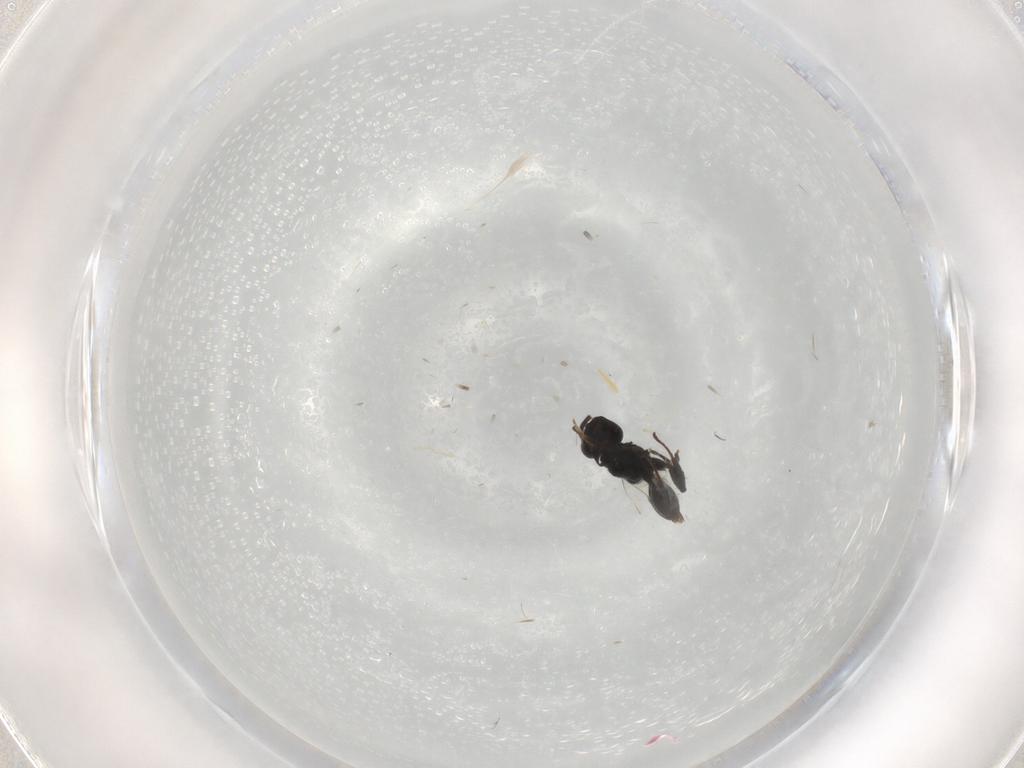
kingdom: Animalia
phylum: Arthropoda
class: Insecta
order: Hymenoptera
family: Chalcididae
